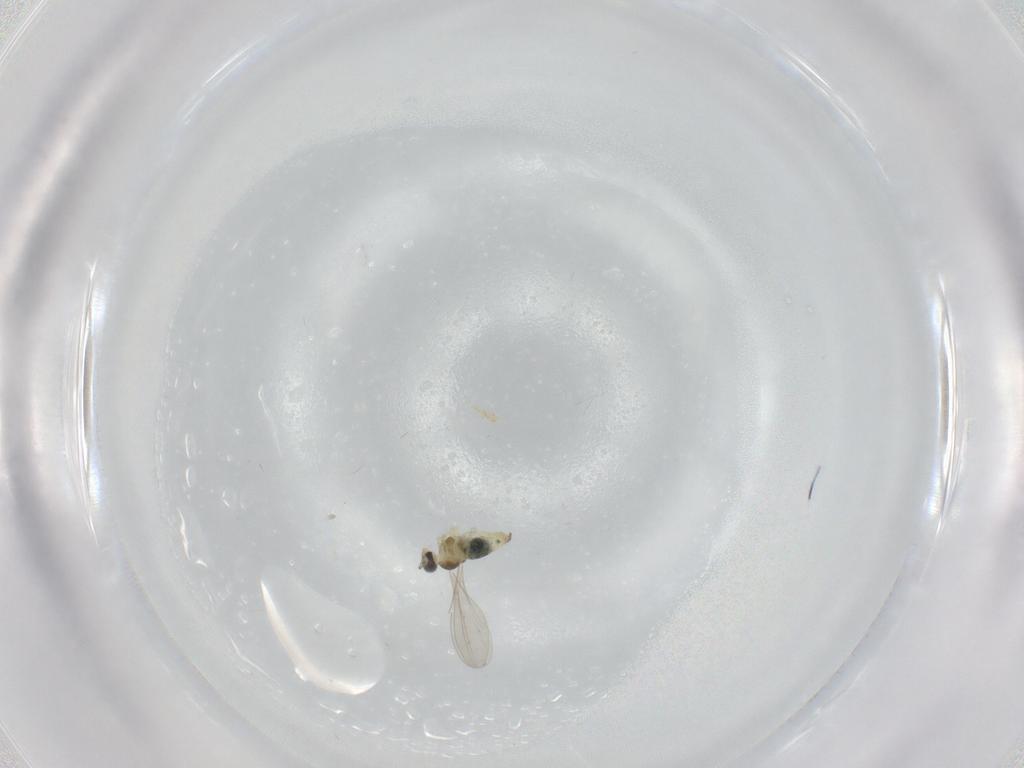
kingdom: Animalia
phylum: Arthropoda
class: Insecta
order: Diptera
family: Cecidomyiidae
